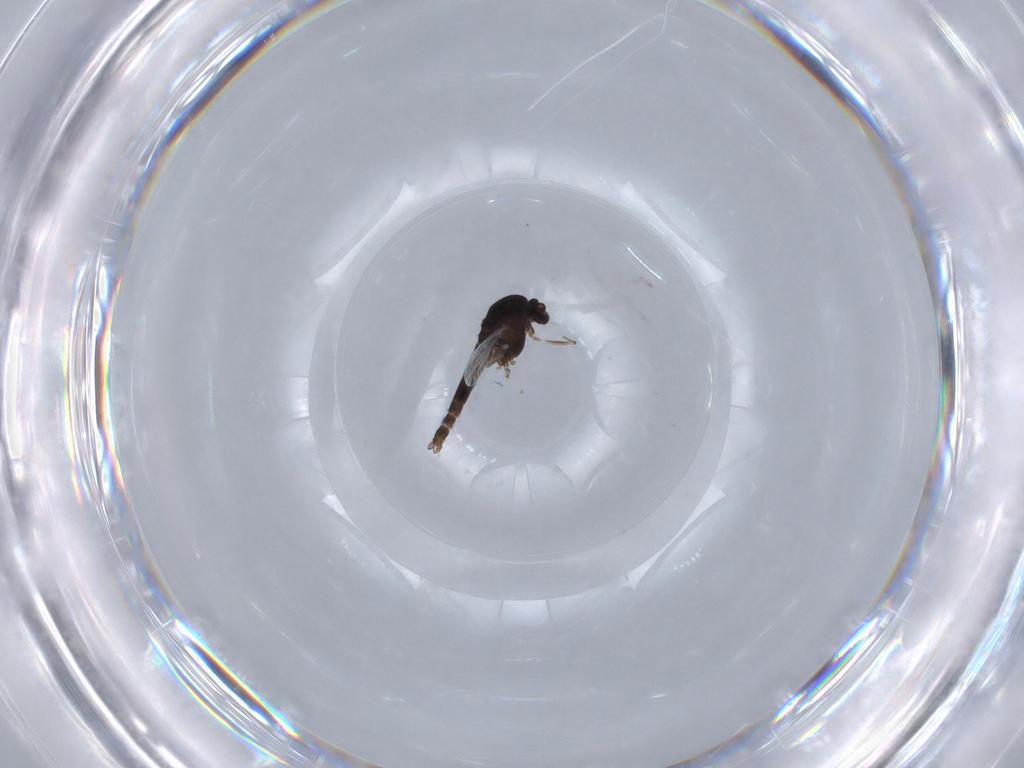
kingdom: Animalia
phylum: Arthropoda
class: Insecta
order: Diptera
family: Chironomidae
